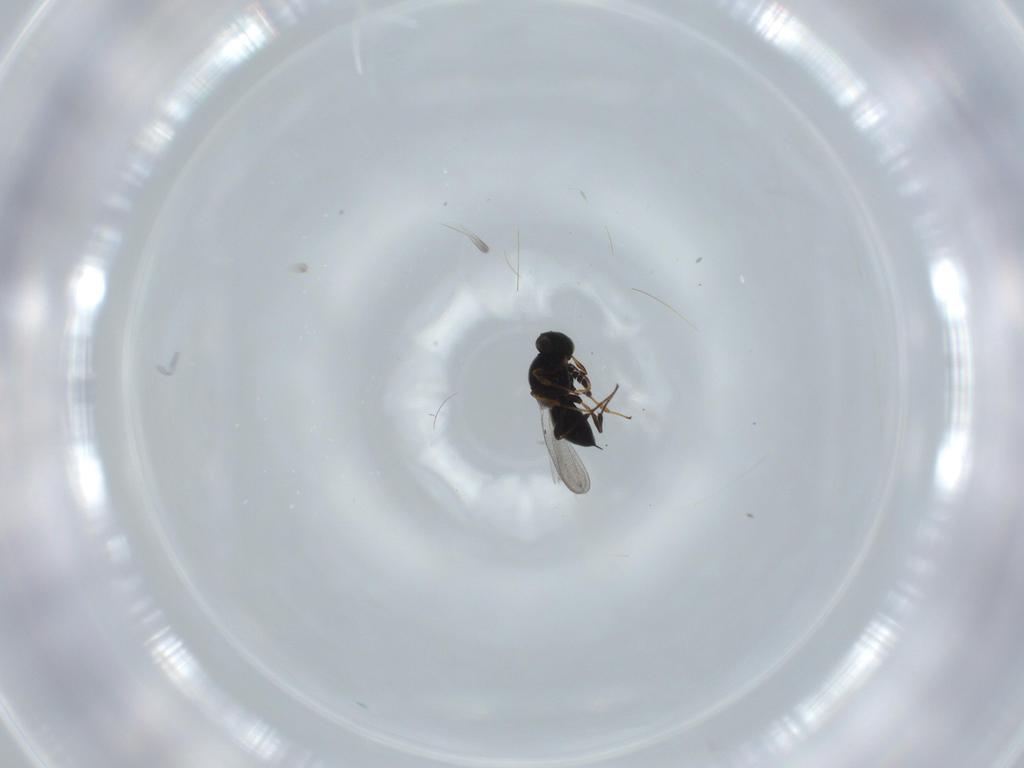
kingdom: Animalia
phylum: Arthropoda
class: Insecta
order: Hymenoptera
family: Platygastridae
